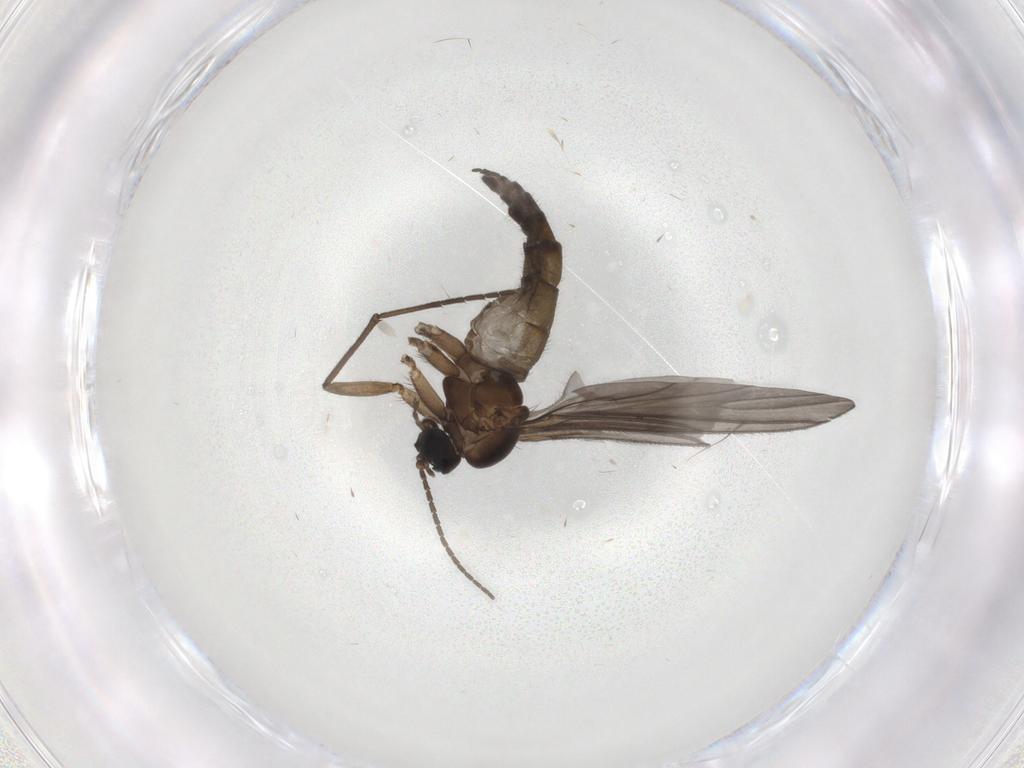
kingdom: Animalia
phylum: Arthropoda
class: Insecta
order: Diptera
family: Sciaridae
